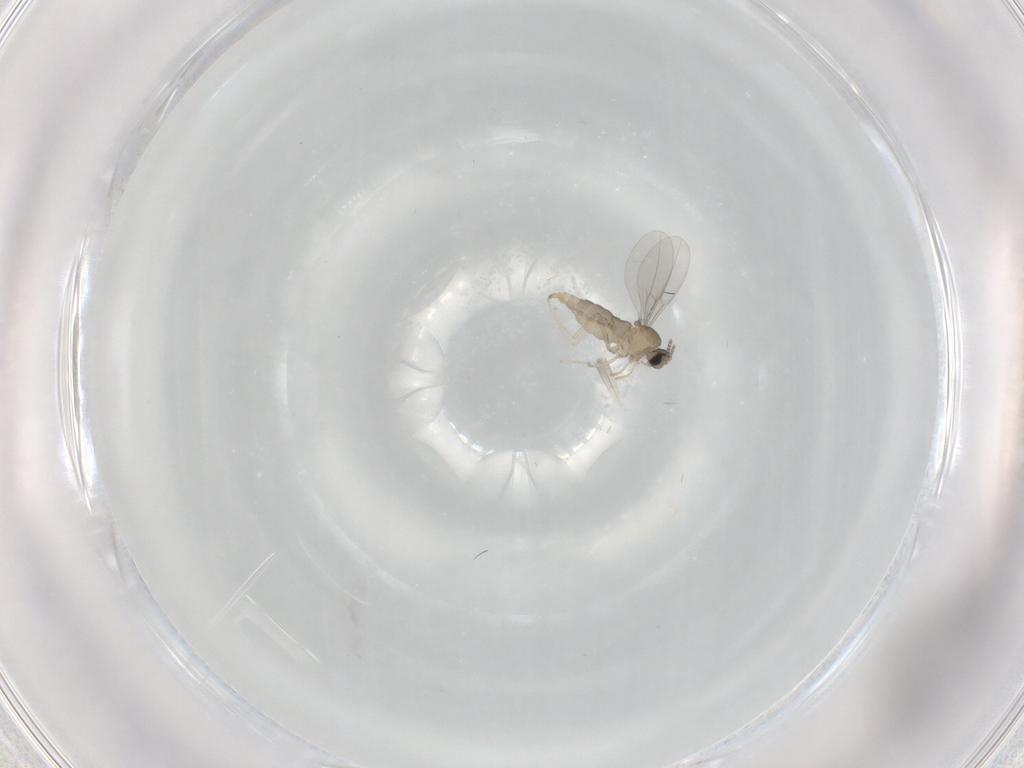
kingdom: Animalia
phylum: Arthropoda
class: Insecta
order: Diptera
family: Cecidomyiidae
